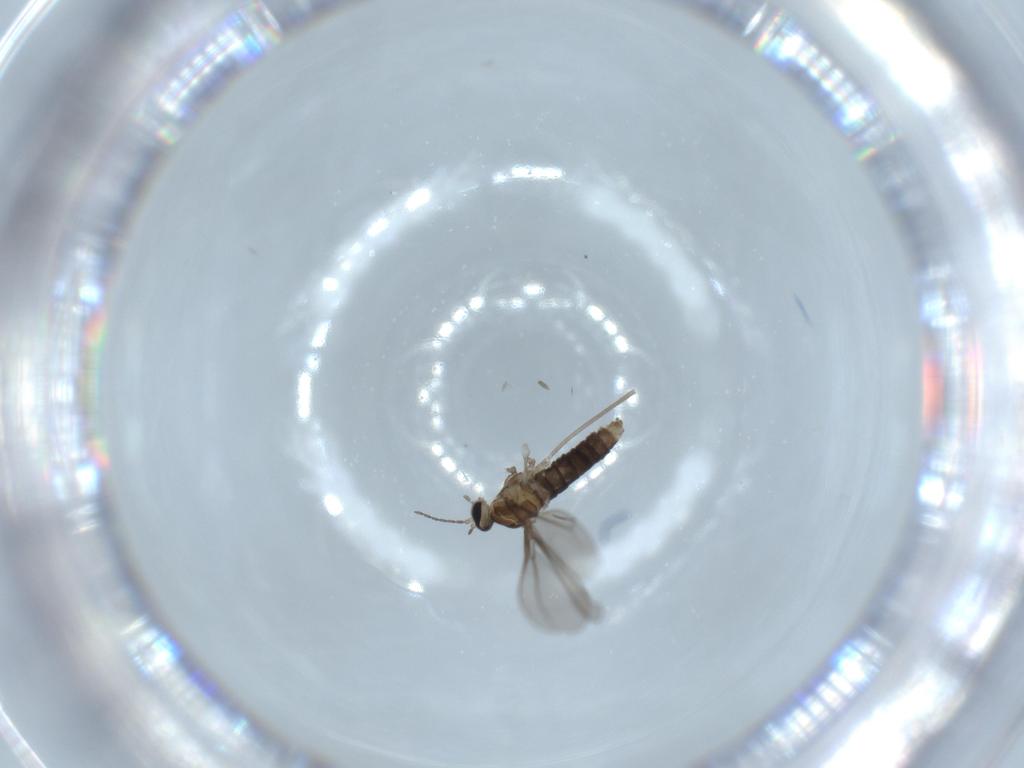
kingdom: Animalia
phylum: Arthropoda
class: Insecta
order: Diptera
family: Cecidomyiidae
